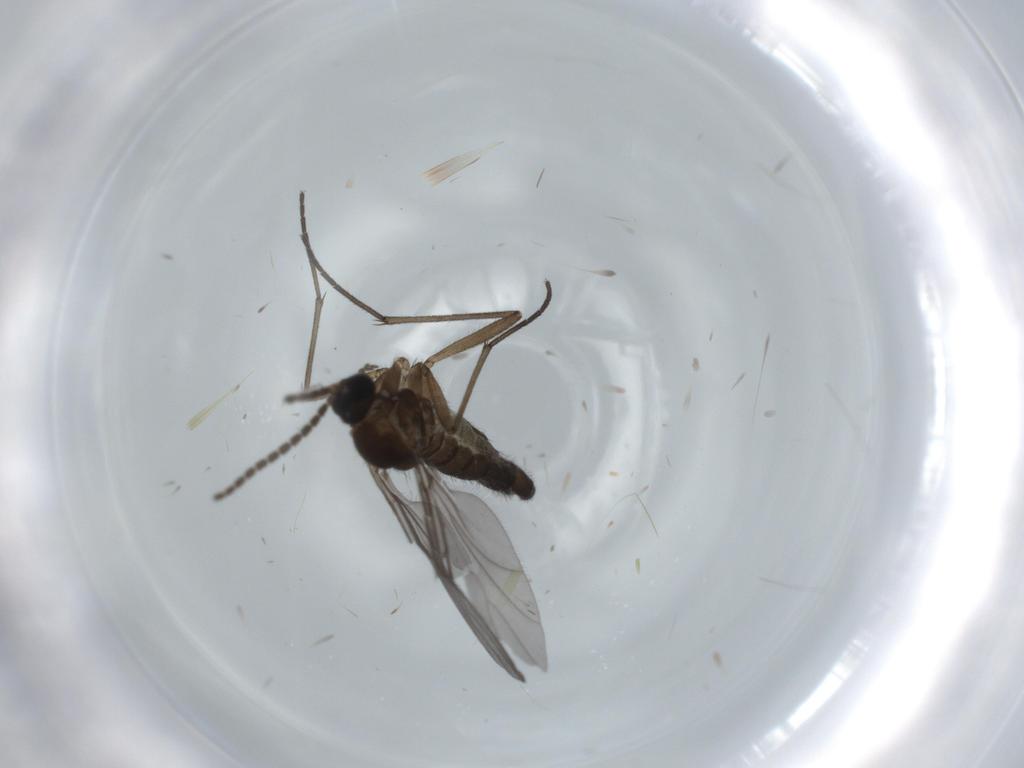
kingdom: Animalia
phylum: Arthropoda
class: Insecta
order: Diptera
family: Sciaridae
